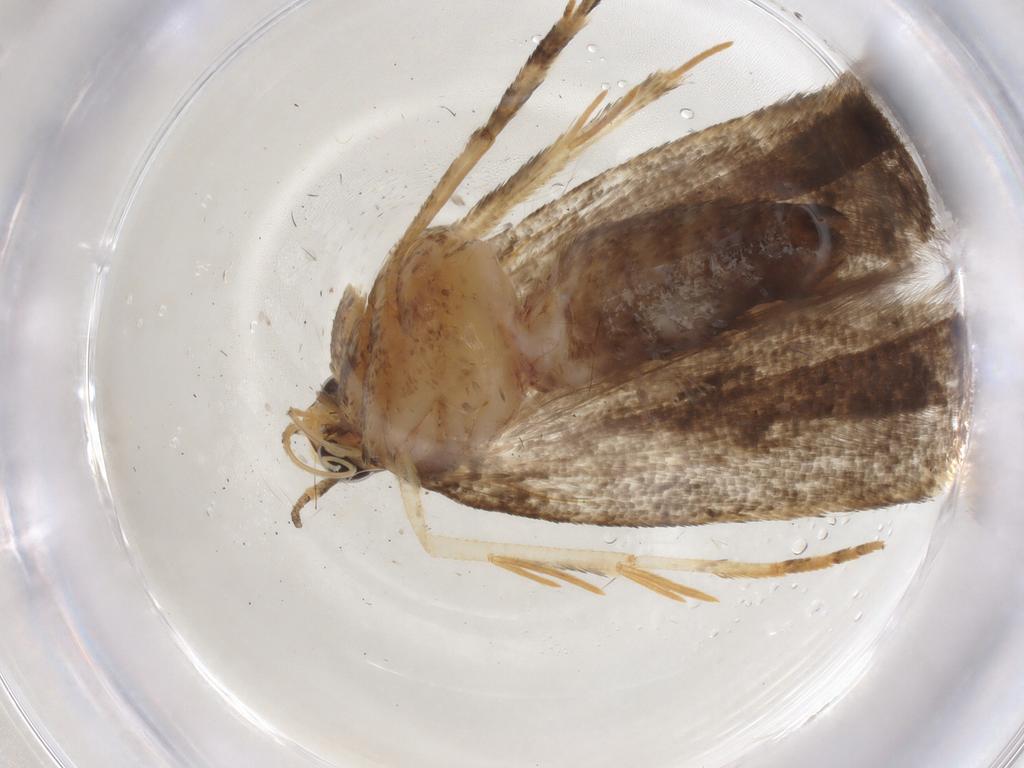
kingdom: Animalia
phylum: Arthropoda
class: Insecta
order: Lepidoptera
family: Gelechiidae
